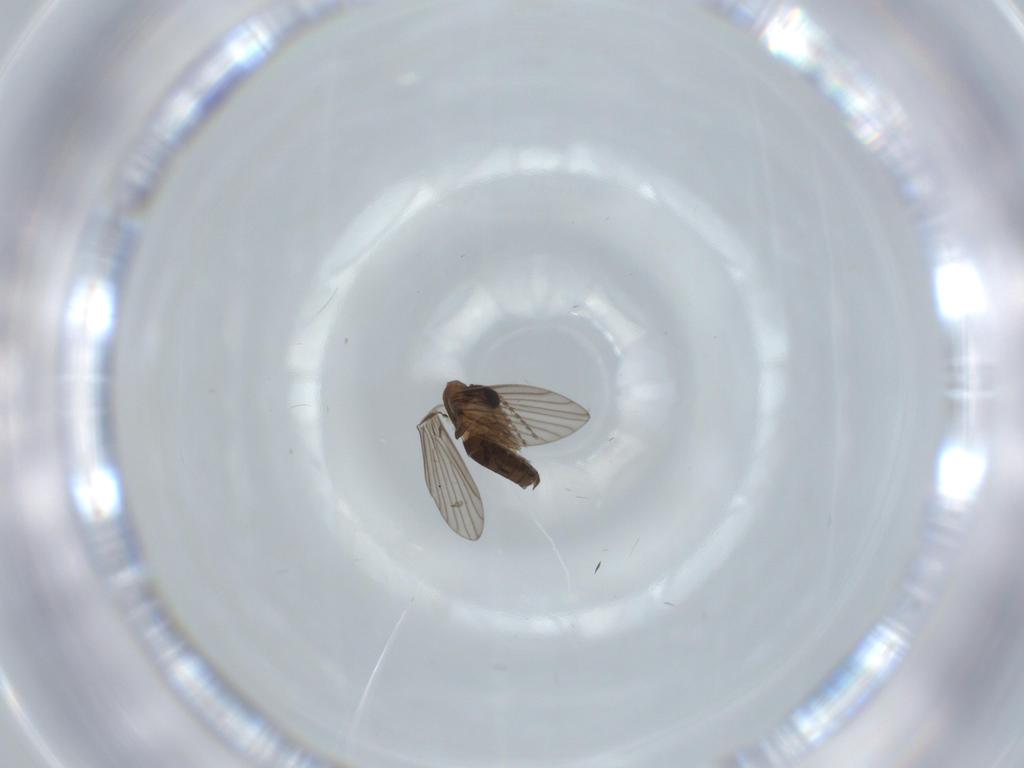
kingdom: Animalia
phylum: Arthropoda
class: Insecta
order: Diptera
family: Psychodidae
